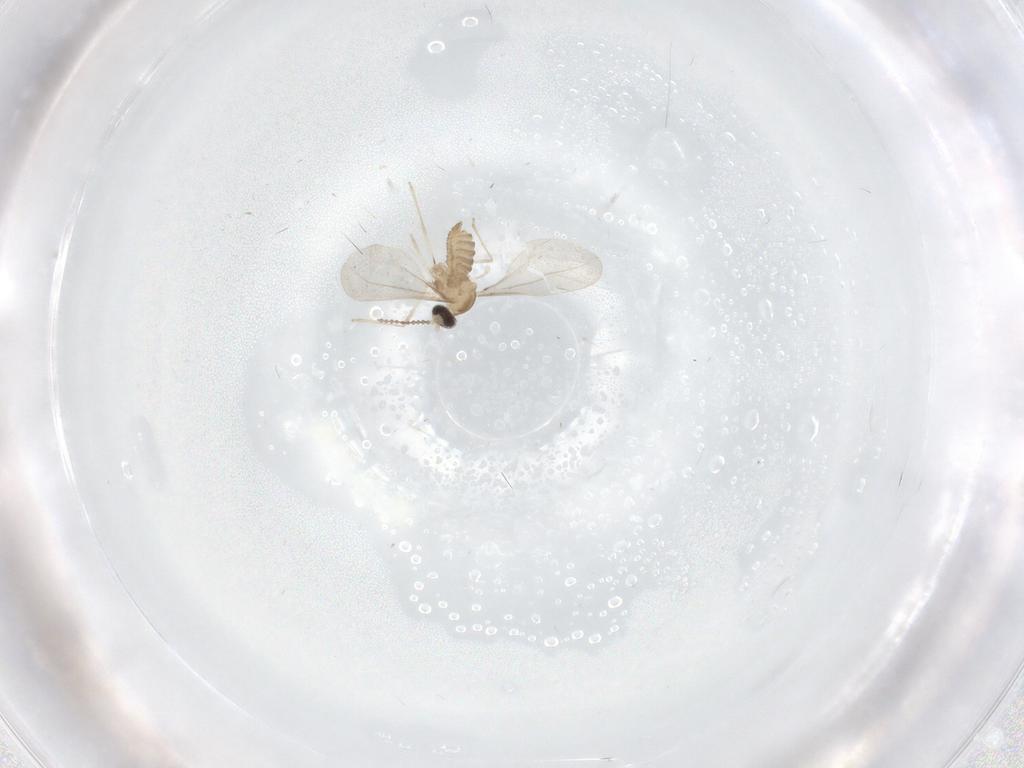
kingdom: Animalia
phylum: Arthropoda
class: Insecta
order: Diptera
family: Cecidomyiidae
